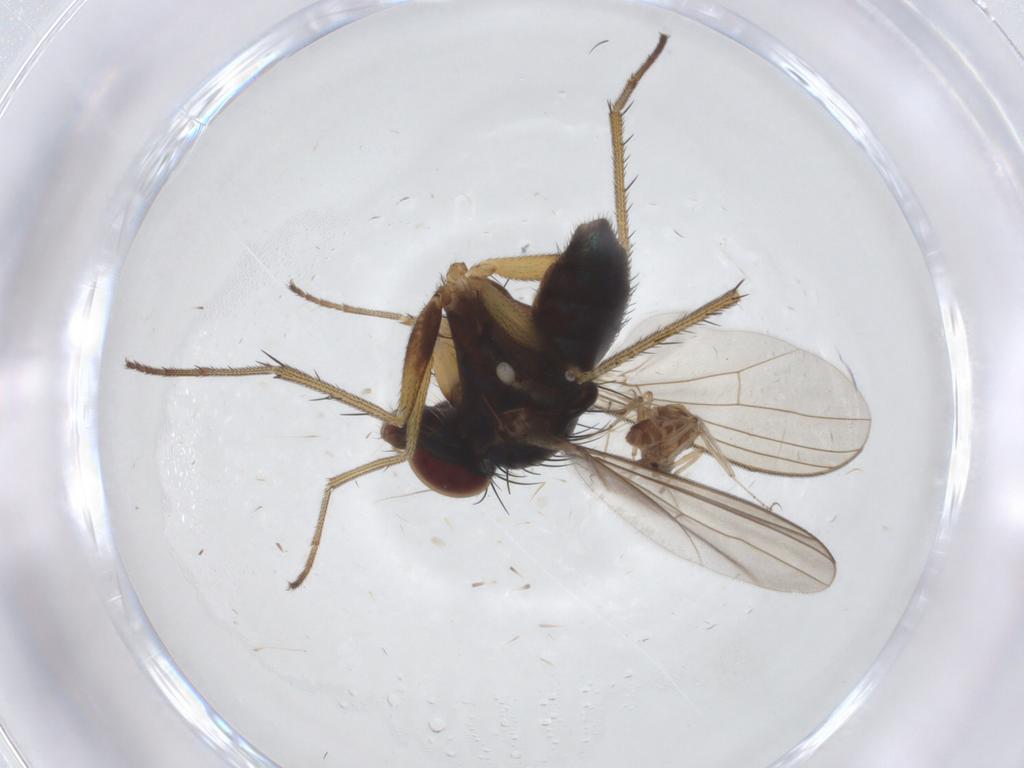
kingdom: Animalia
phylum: Arthropoda
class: Insecta
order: Diptera
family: Dolichopodidae
